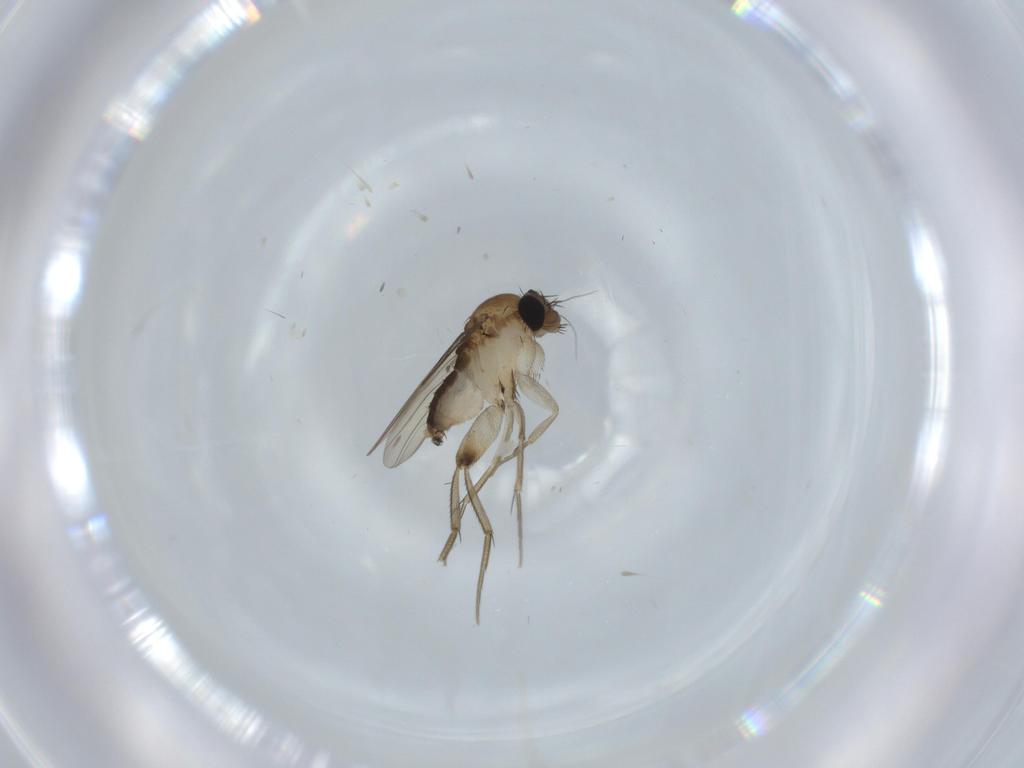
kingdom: Animalia
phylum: Arthropoda
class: Insecta
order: Diptera
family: Phoridae
